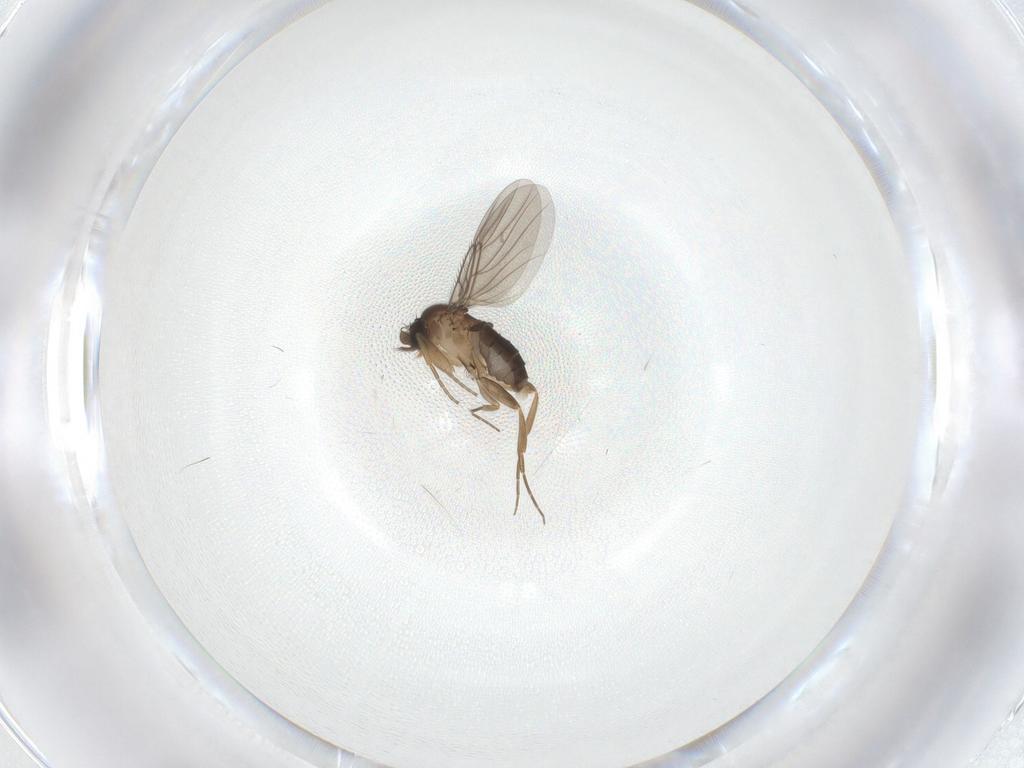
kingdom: Animalia
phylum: Arthropoda
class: Insecta
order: Diptera
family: Phoridae
